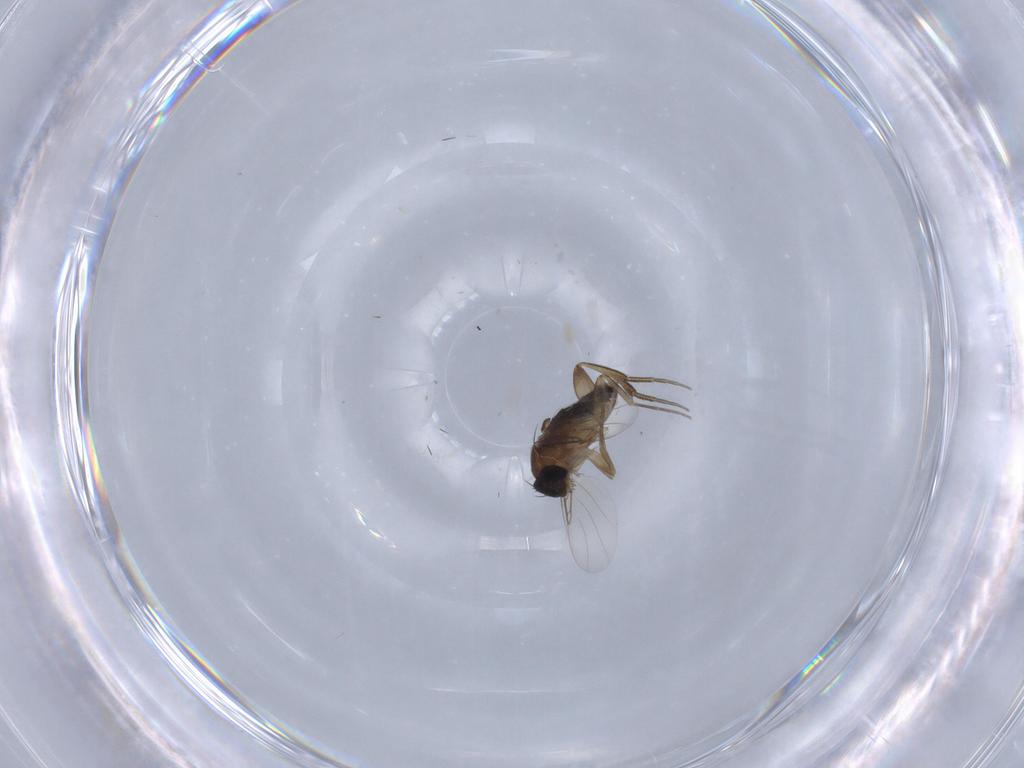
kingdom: Animalia
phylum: Arthropoda
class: Insecta
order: Diptera
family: Phoridae
